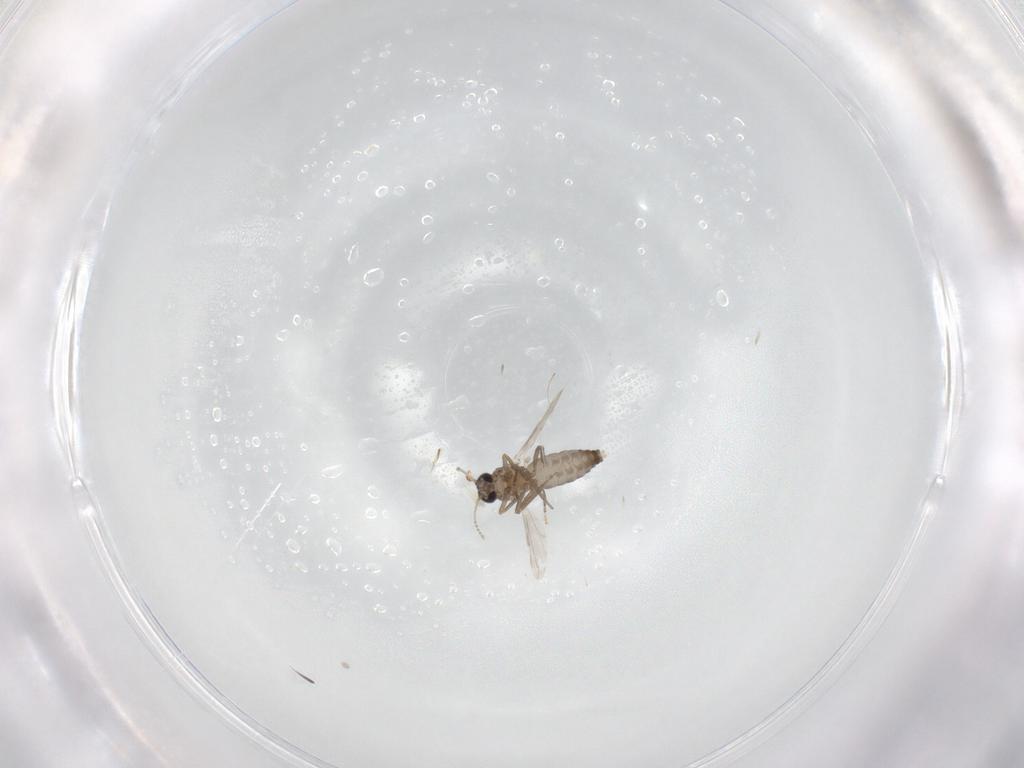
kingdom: Animalia
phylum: Arthropoda
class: Insecta
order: Diptera
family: Ceratopogonidae
